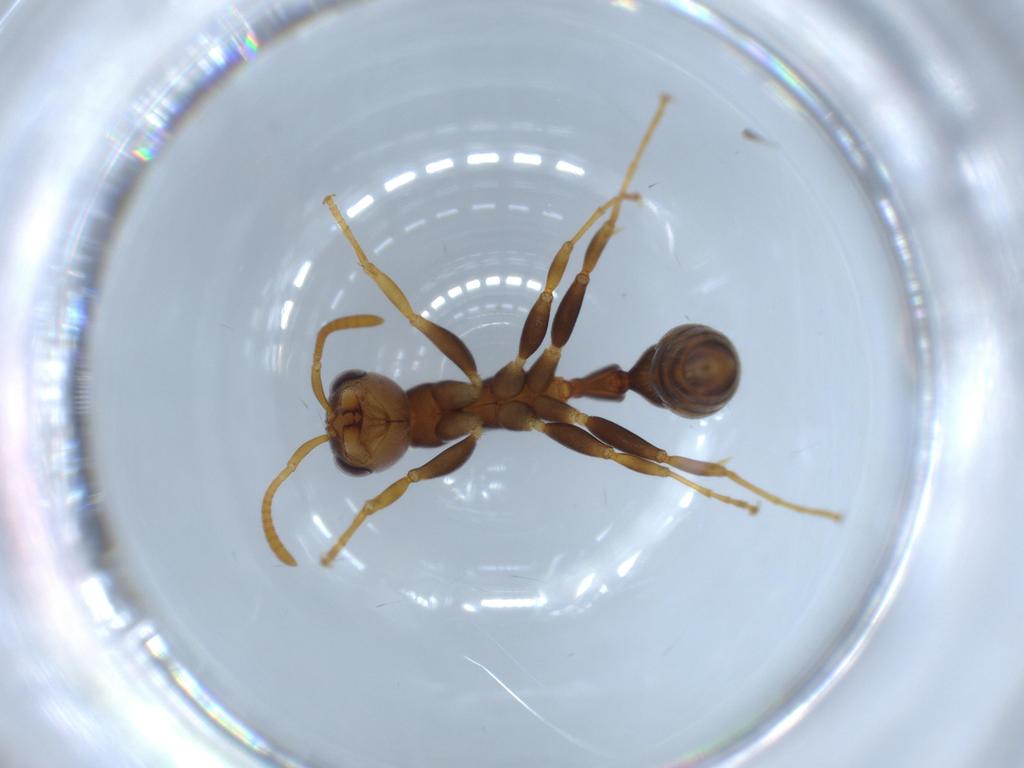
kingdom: Animalia
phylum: Arthropoda
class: Insecta
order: Hymenoptera
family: Formicidae
